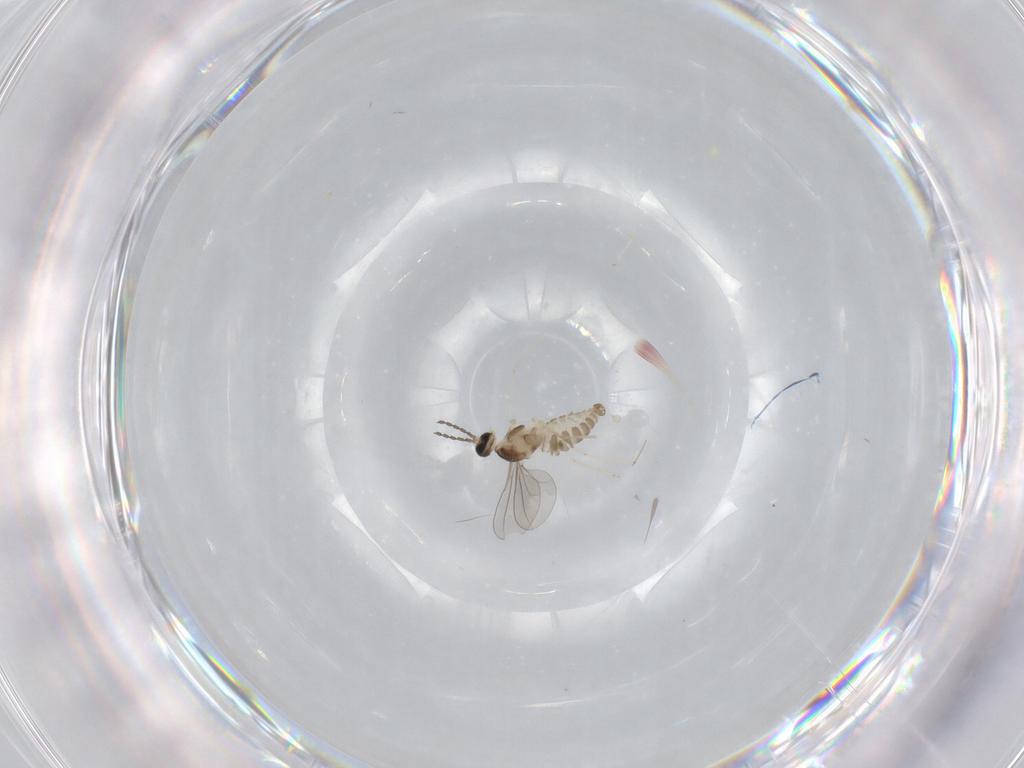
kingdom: Animalia
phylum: Arthropoda
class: Insecta
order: Diptera
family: Cecidomyiidae
